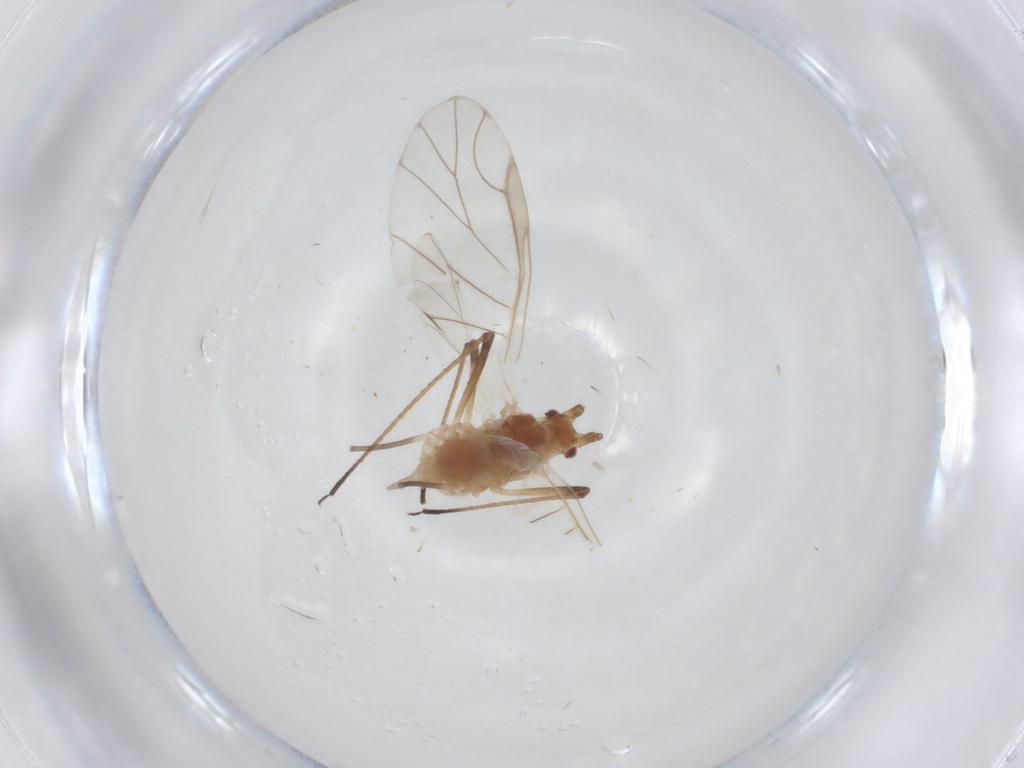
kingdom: Animalia
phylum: Arthropoda
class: Insecta
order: Hemiptera
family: Aphididae
